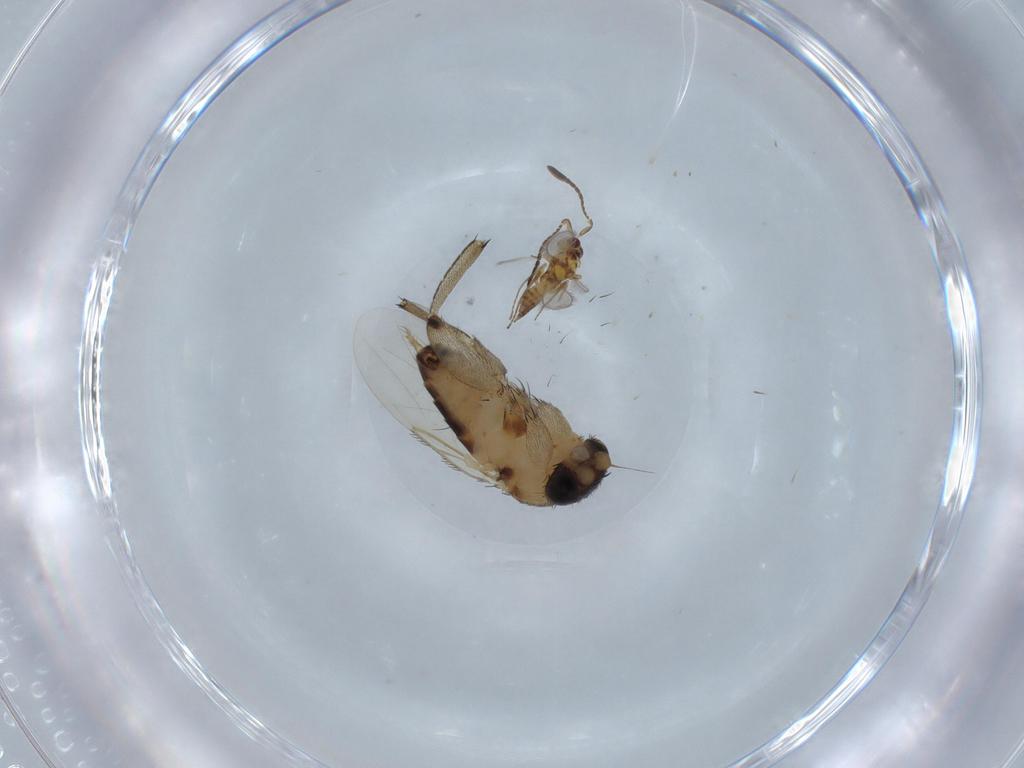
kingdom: Animalia
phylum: Arthropoda
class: Insecta
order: Diptera
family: Phoridae
